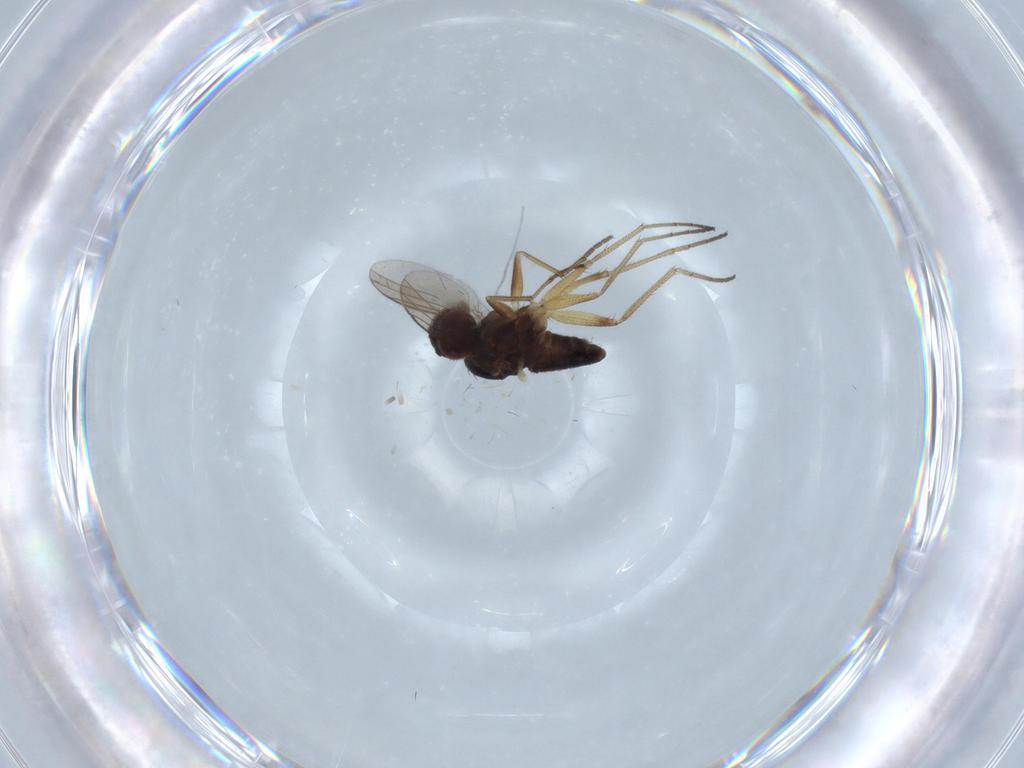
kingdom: Animalia
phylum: Arthropoda
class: Insecta
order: Diptera
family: Dolichopodidae
